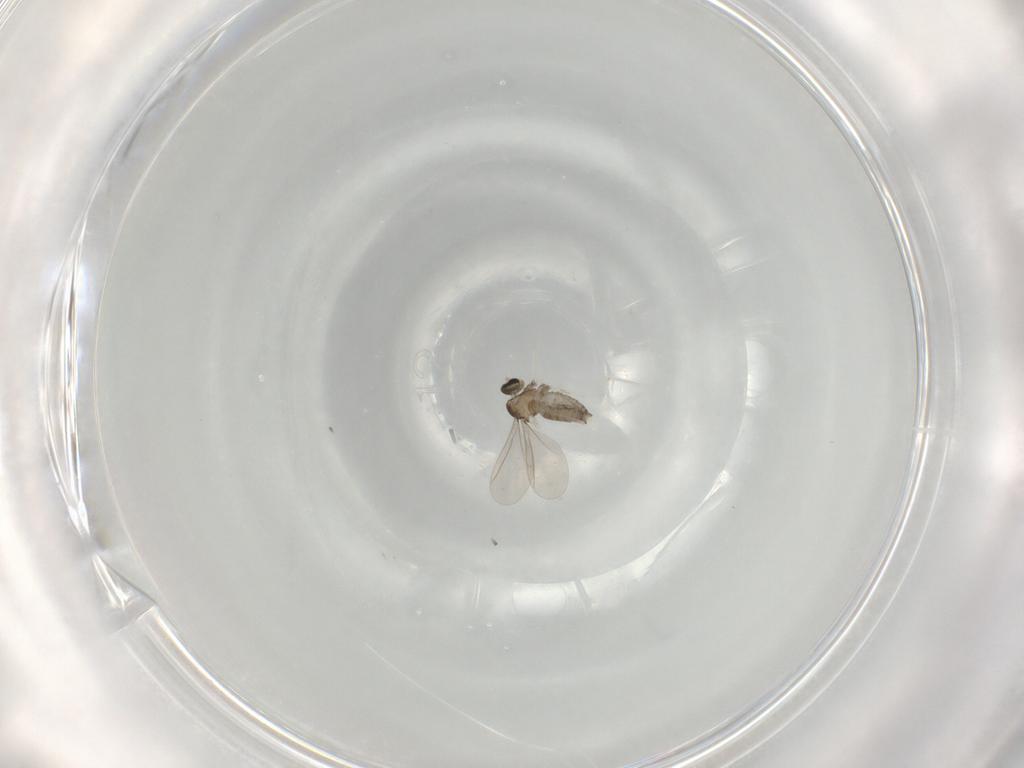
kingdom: Animalia
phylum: Arthropoda
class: Insecta
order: Diptera
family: Cecidomyiidae
